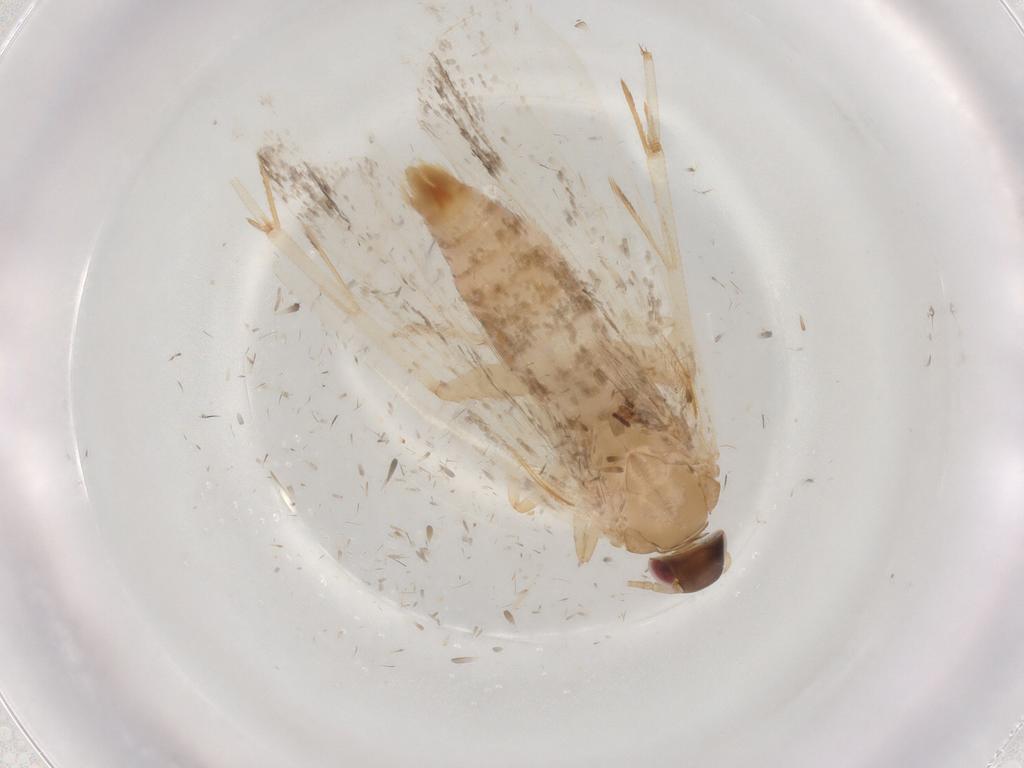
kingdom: Animalia
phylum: Arthropoda
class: Insecta
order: Lepidoptera
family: Gelechiidae
